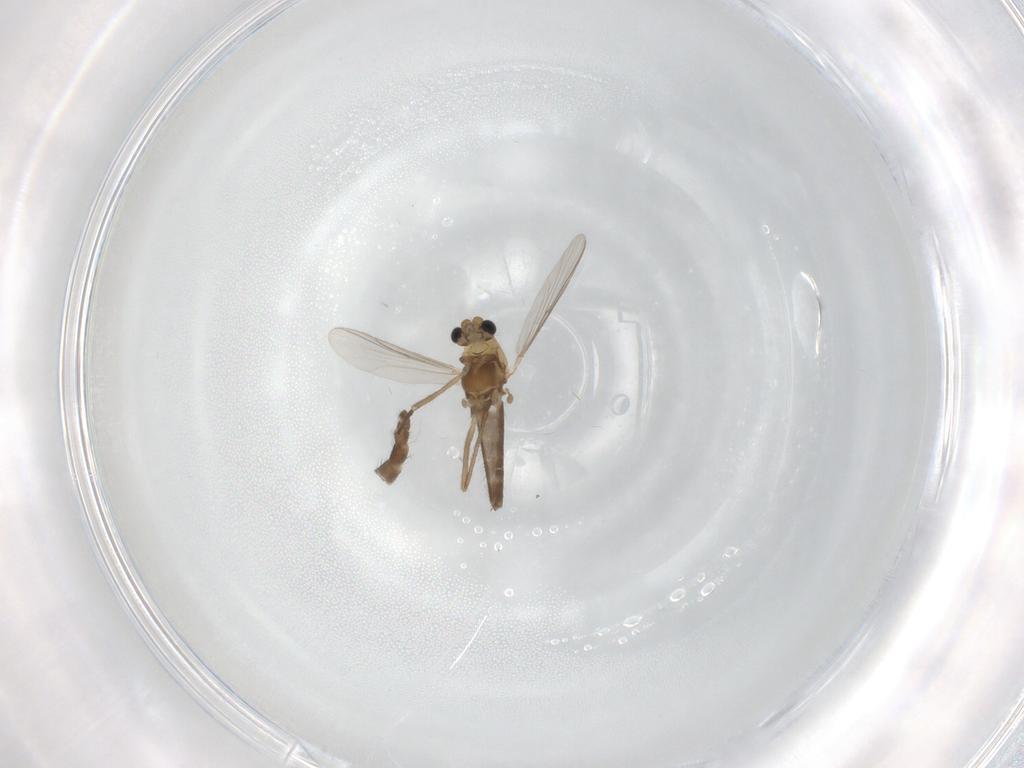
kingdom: Animalia
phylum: Arthropoda
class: Insecta
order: Diptera
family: Chironomidae
